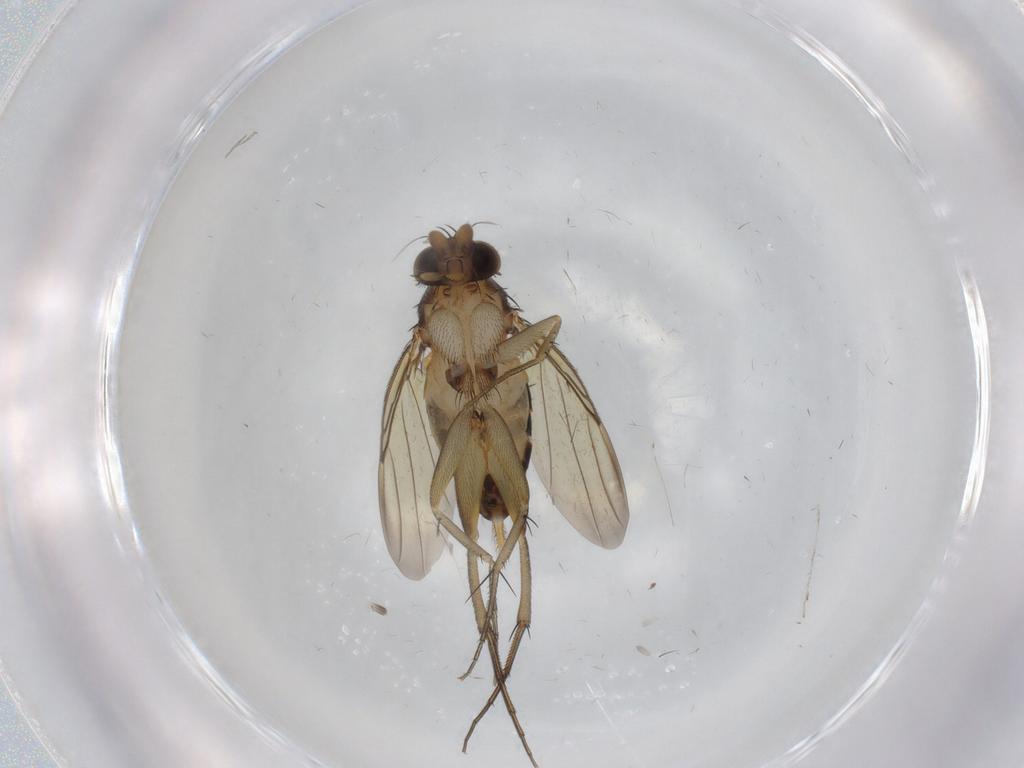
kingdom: Animalia
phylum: Arthropoda
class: Insecta
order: Diptera
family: Phoridae
